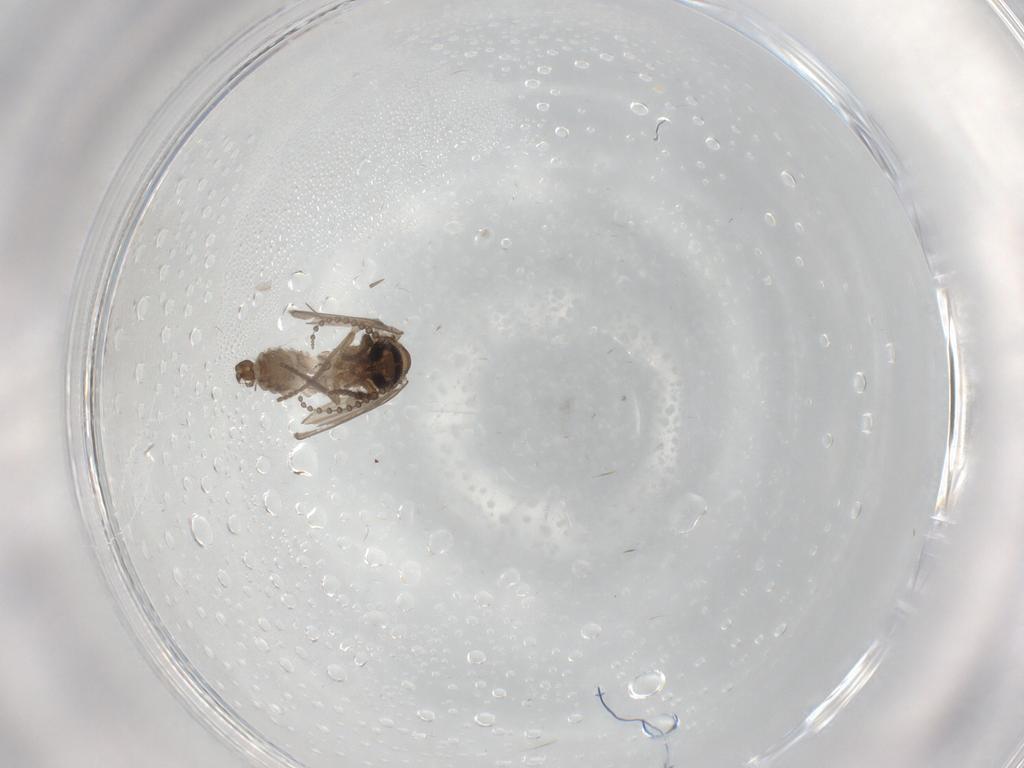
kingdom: Animalia
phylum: Arthropoda
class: Insecta
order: Diptera
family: Psychodidae
